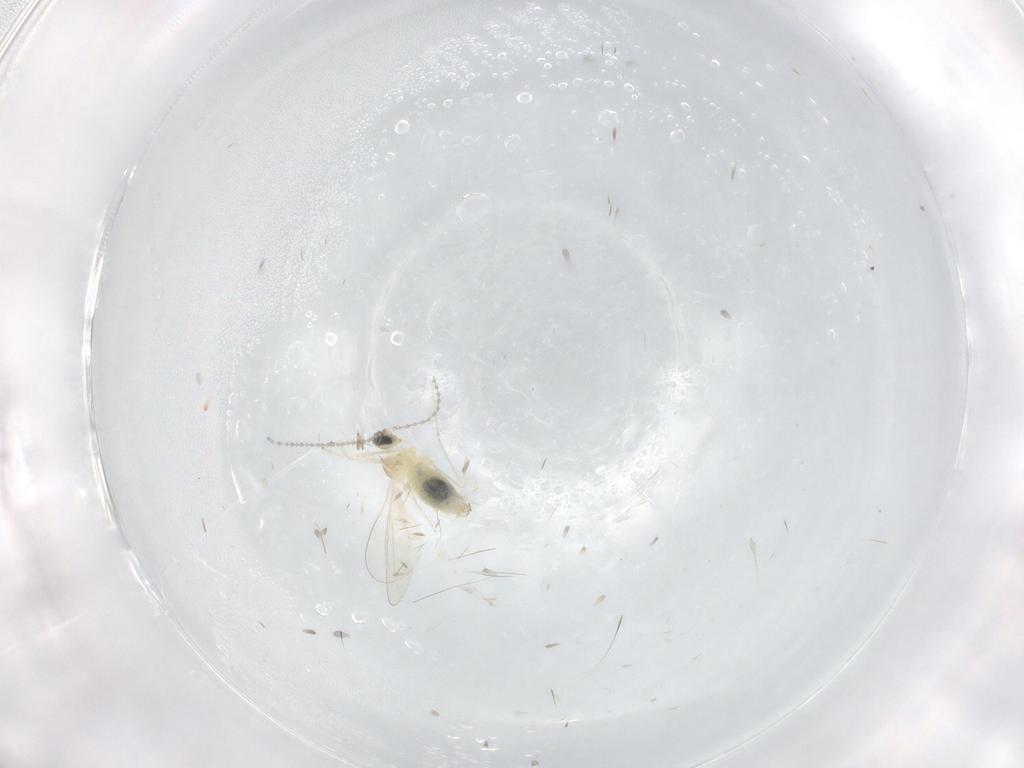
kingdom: Animalia
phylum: Arthropoda
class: Insecta
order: Diptera
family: Cecidomyiidae
